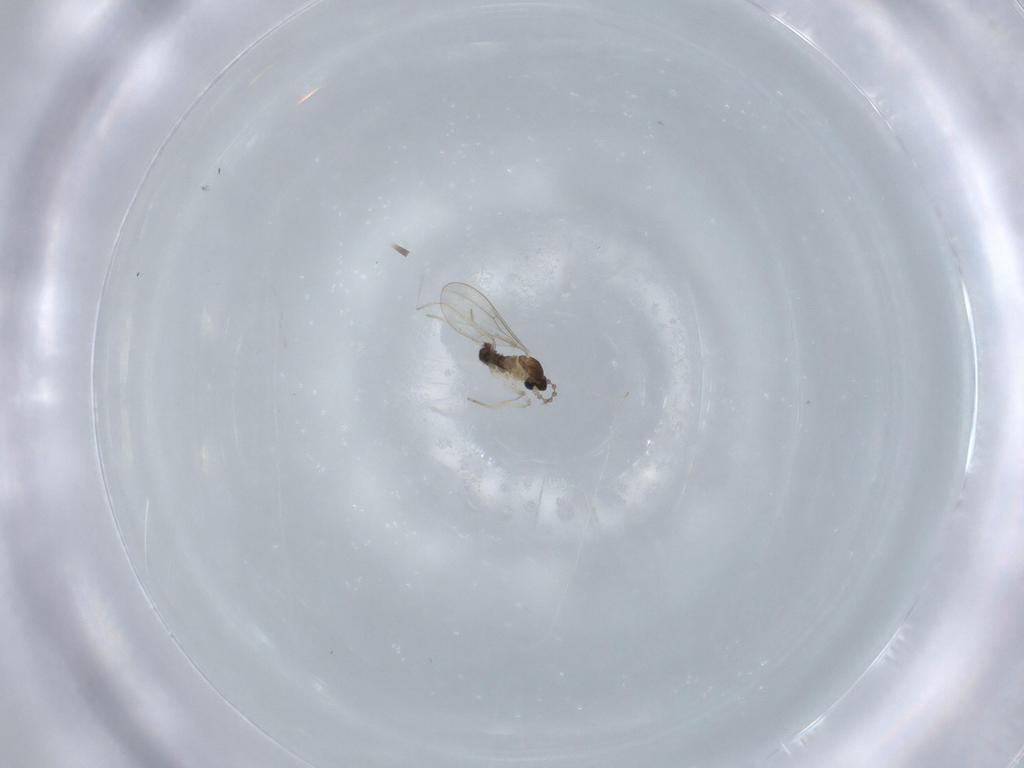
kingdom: Animalia
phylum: Arthropoda
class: Insecta
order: Diptera
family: Cecidomyiidae
